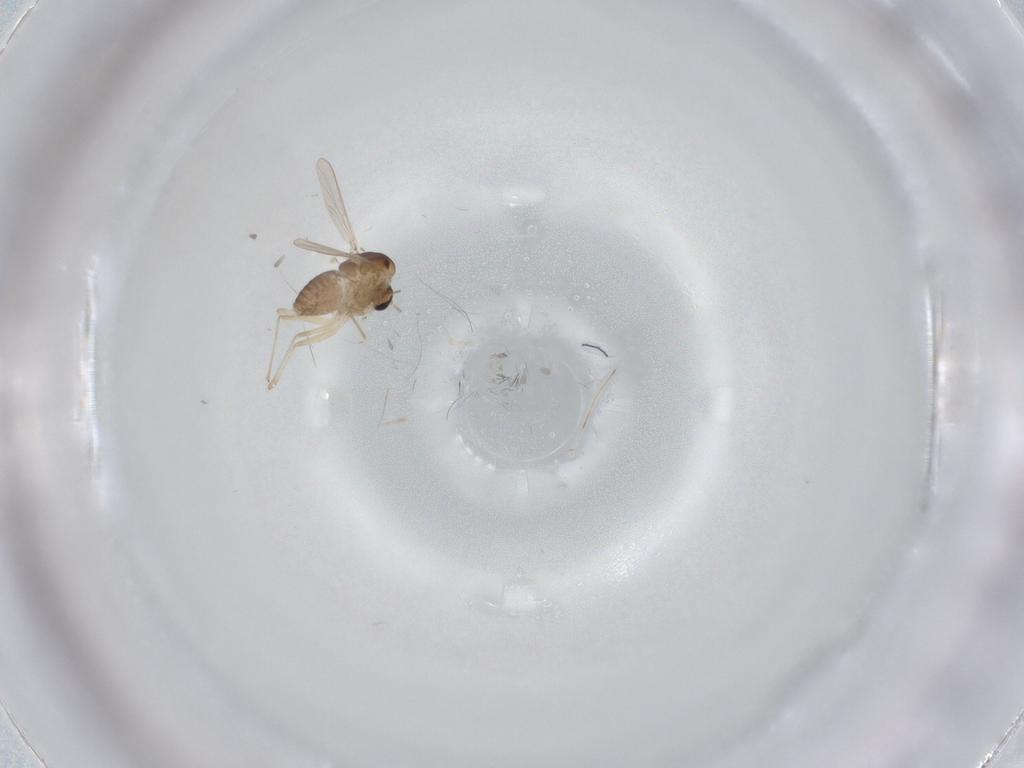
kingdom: Animalia
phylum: Arthropoda
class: Insecta
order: Diptera
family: Chironomidae
